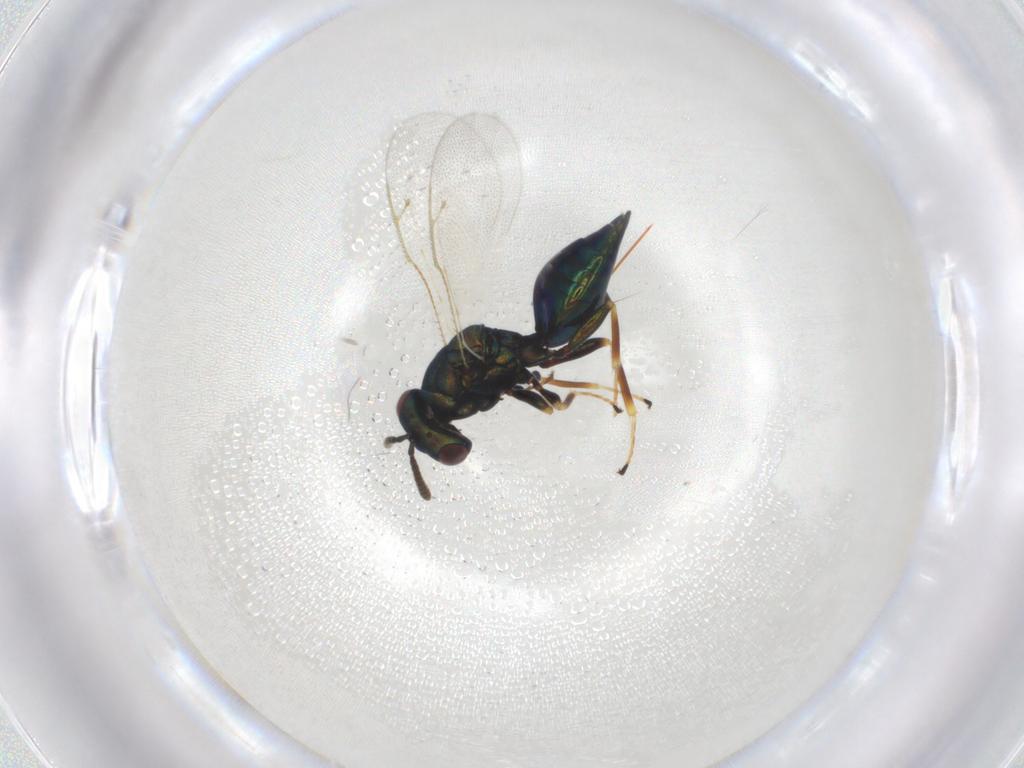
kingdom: Animalia
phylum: Arthropoda
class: Insecta
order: Hymenoptera
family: Pteromalidae
